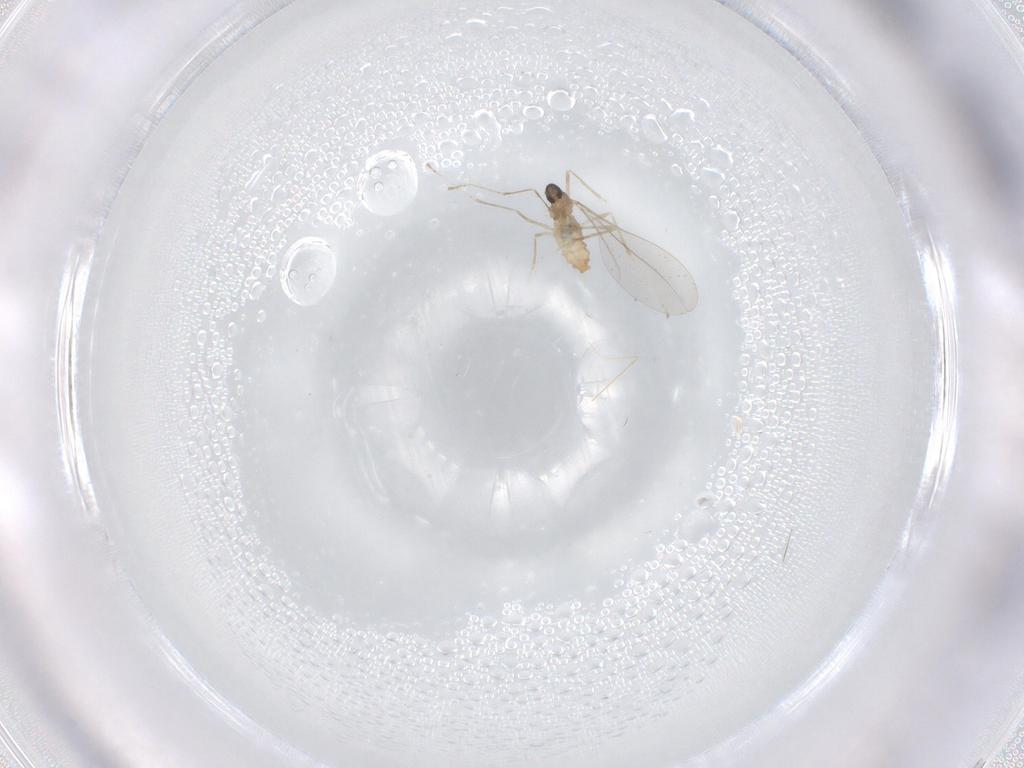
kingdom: Animalia
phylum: Arthropoda
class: Insecta
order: Diptera
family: Cecidomyiidae
